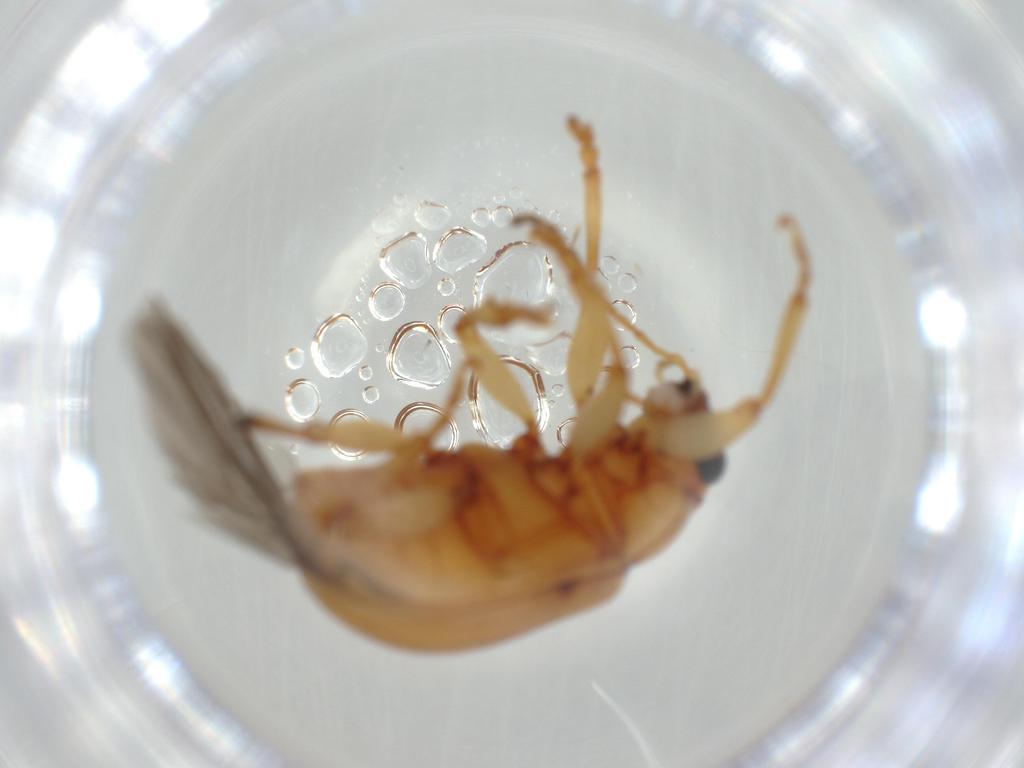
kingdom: Animalia
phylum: Arthropoda
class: Insecta
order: Coleoptera
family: Chrysomelidae
